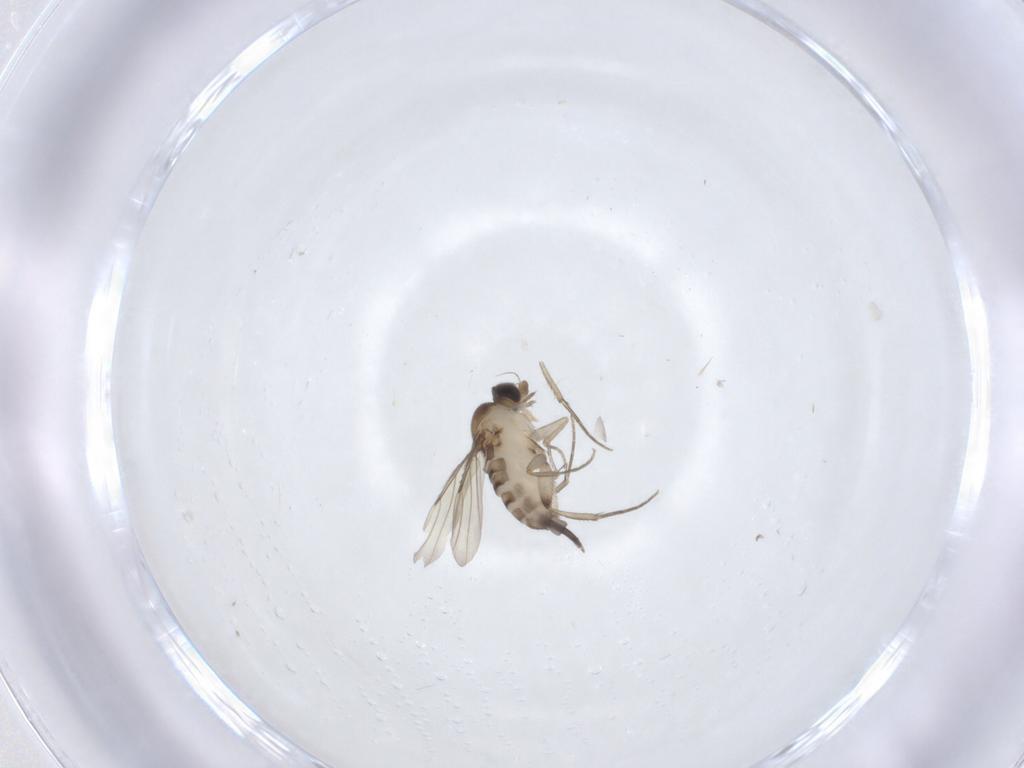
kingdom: Animalia
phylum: Arthropoda
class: Insecta
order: Diptera
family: Phoridae
